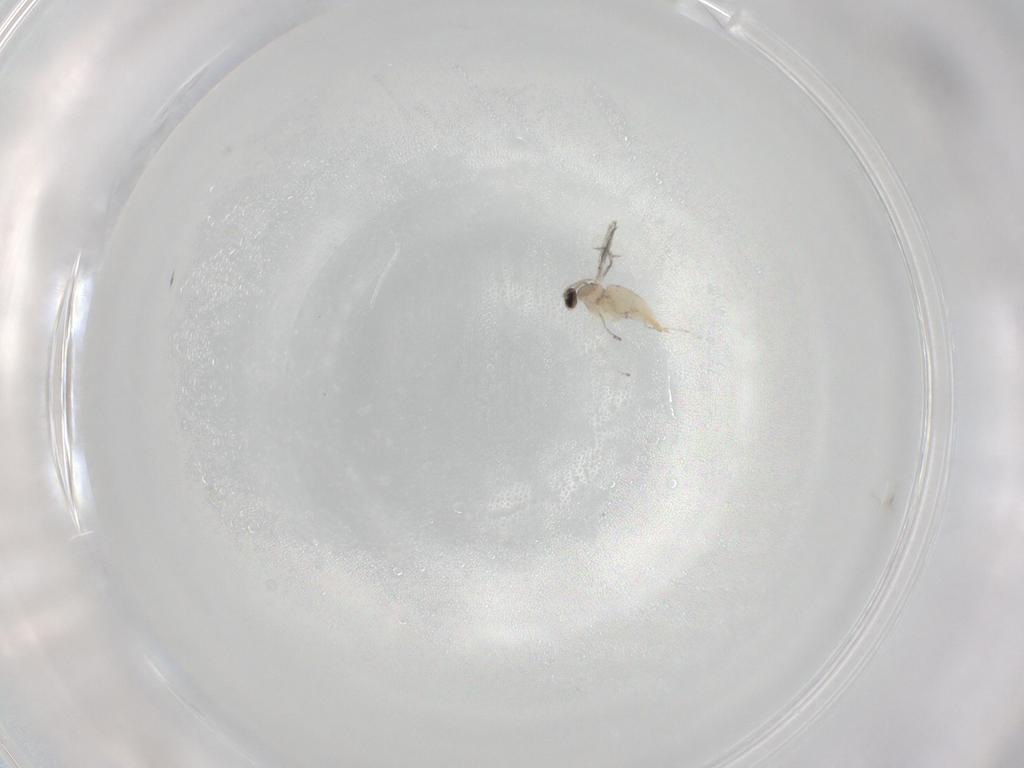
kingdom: Animalia
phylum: Arthropoda
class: Insecta
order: Diptera
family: Cecidomyiidae
